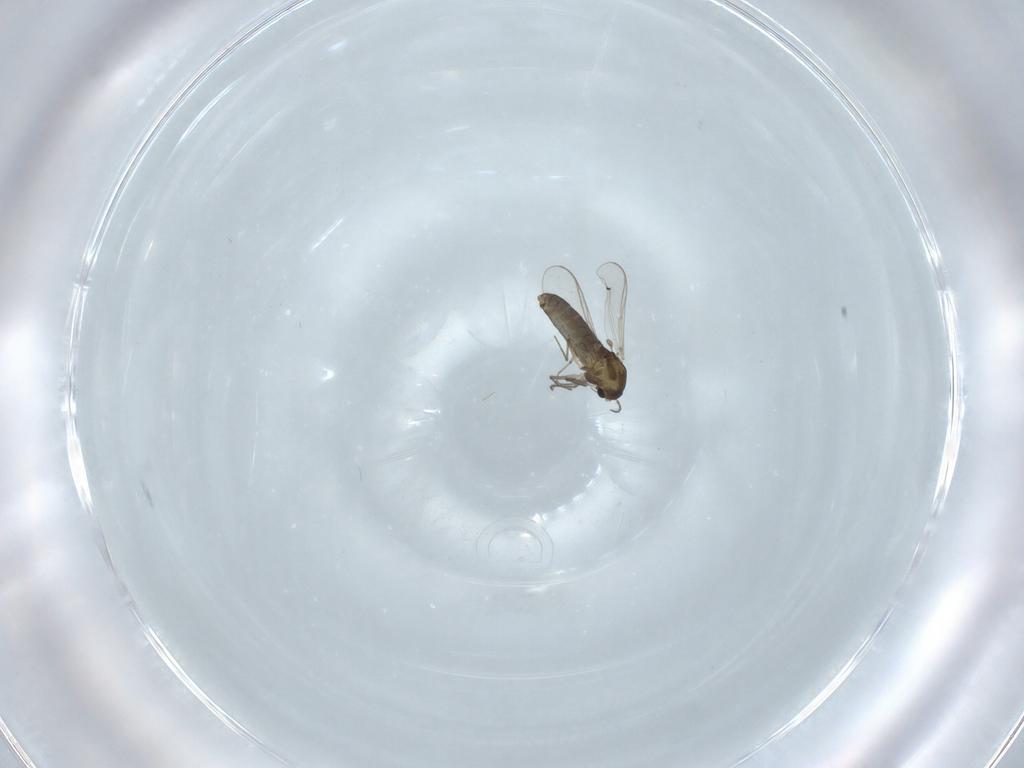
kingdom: Animalia
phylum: Arthropoda
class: Insecta
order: Diptera
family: Chironomidae
